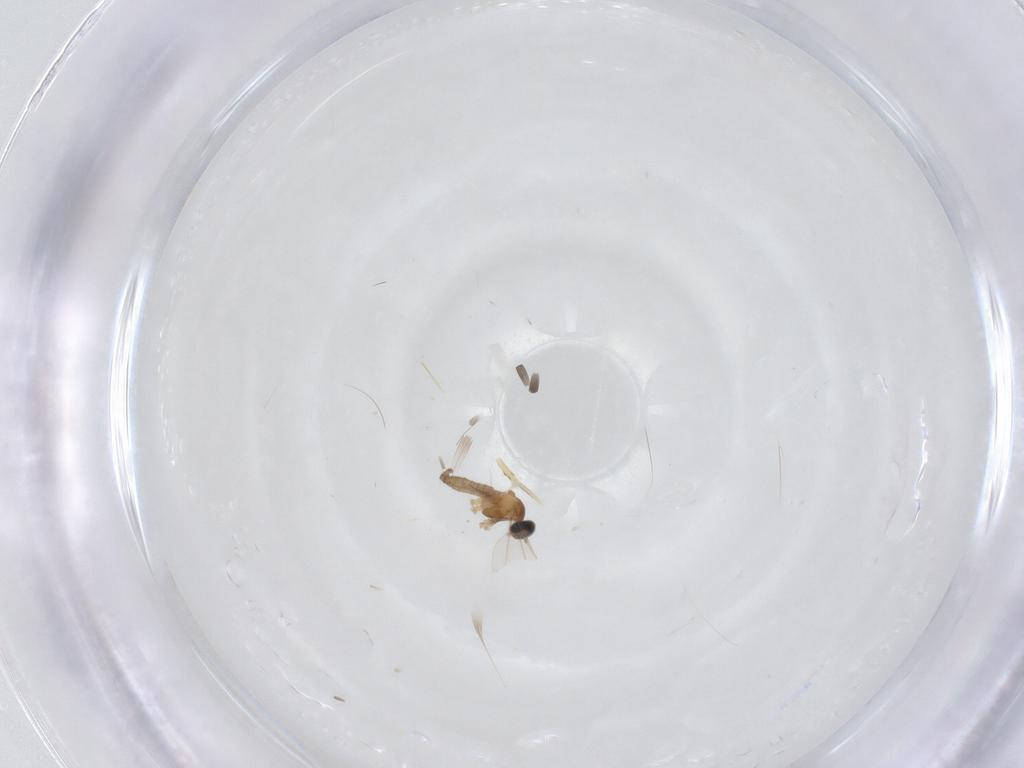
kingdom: Animalia
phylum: Arthropoda
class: Insecta
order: Diptera
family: Cecidomyiidae
